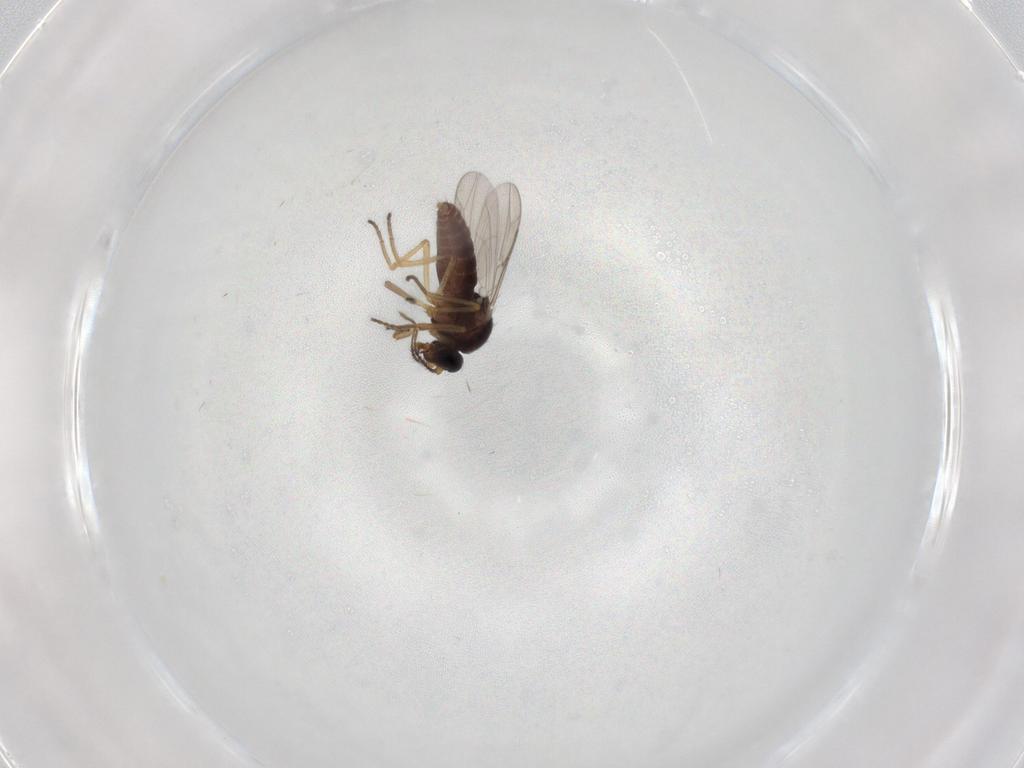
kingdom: Animalia
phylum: Arthropoda
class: Insecta
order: Diptera
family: Ceratopogonidae
